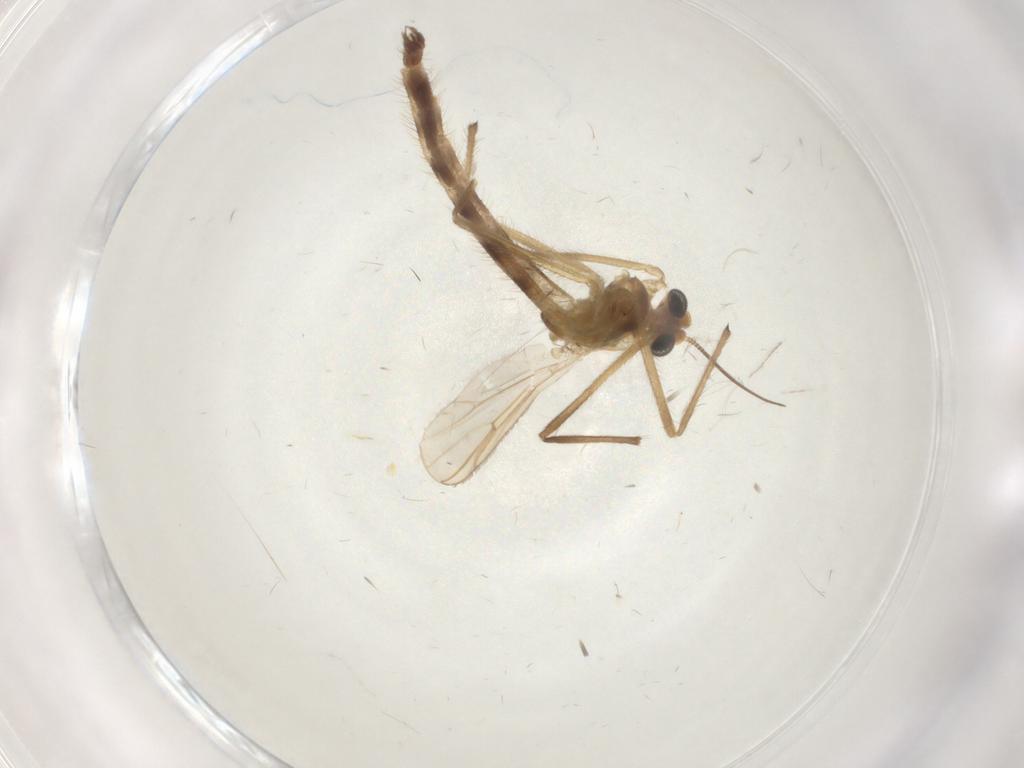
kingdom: Animalia
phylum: Arthropoda
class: Insecta
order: Diptera
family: Chironomidae
